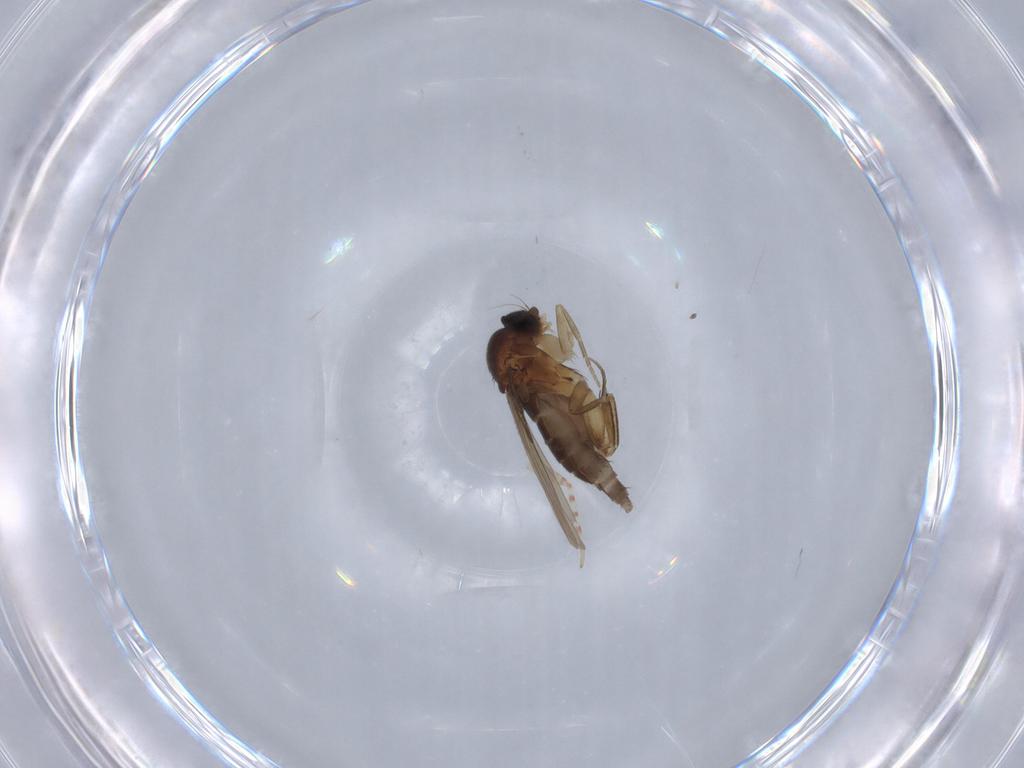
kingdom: Animalia
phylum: Arthropoda
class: Insecta
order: Diptera
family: Phoridae
